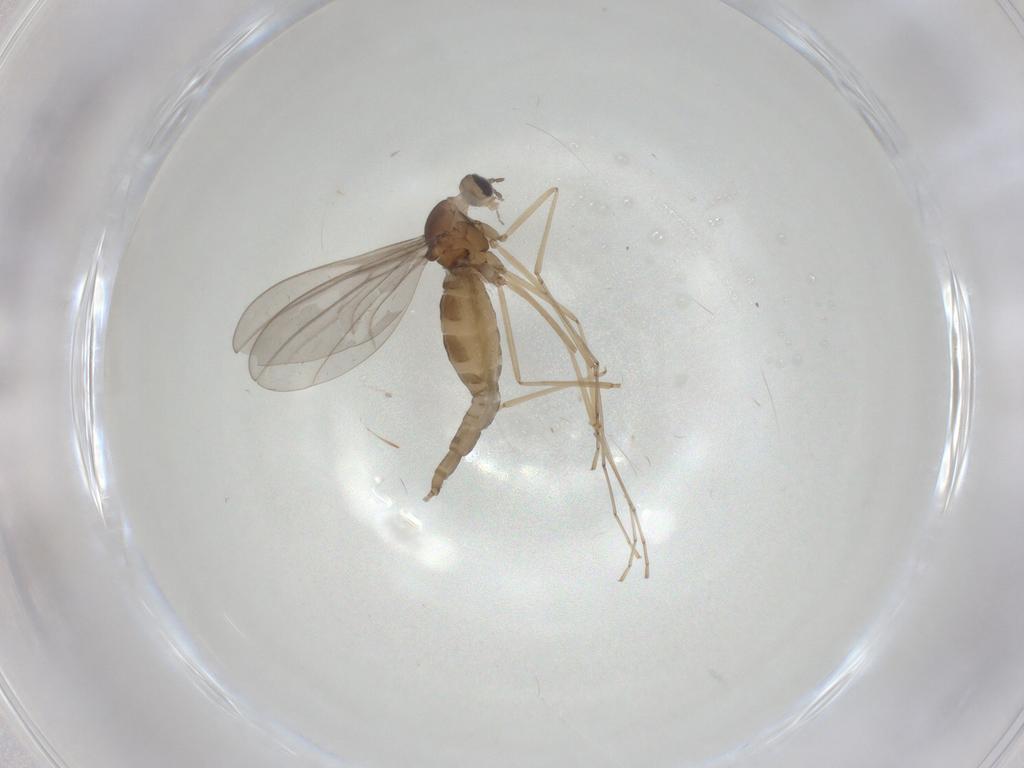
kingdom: Animalia
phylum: Arthropoda
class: Insecta
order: Diptera
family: Cecidomyiidae
